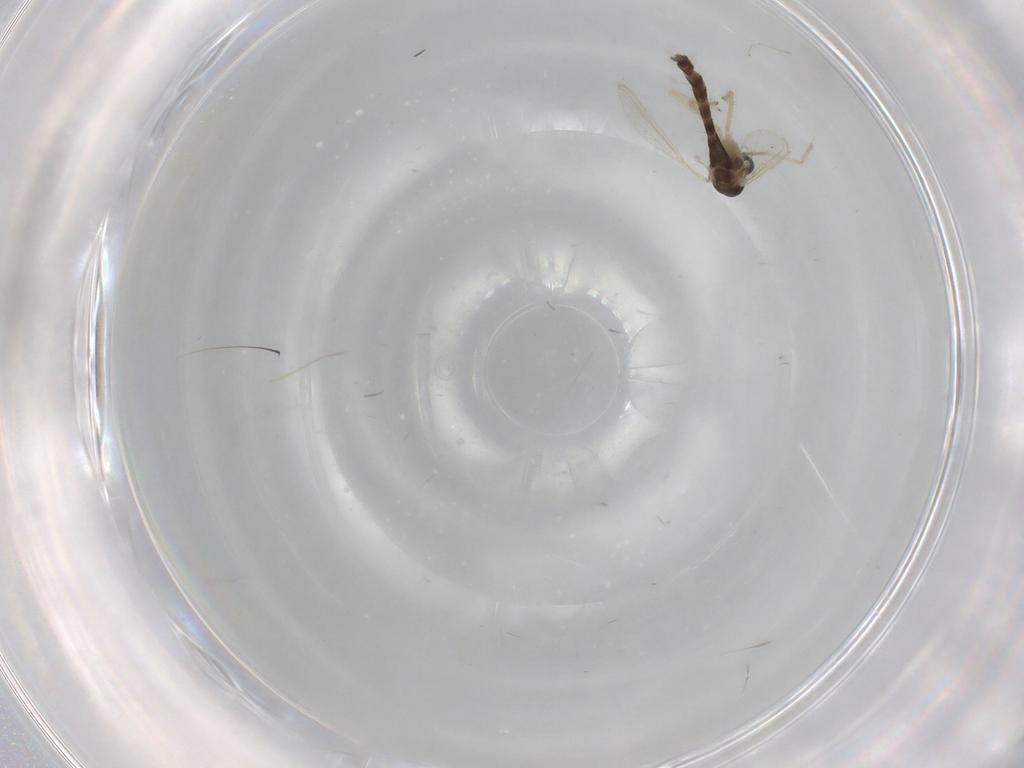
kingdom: Animalia
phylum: Arthropoda
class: Insecta
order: Diptera
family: Chironomidae
